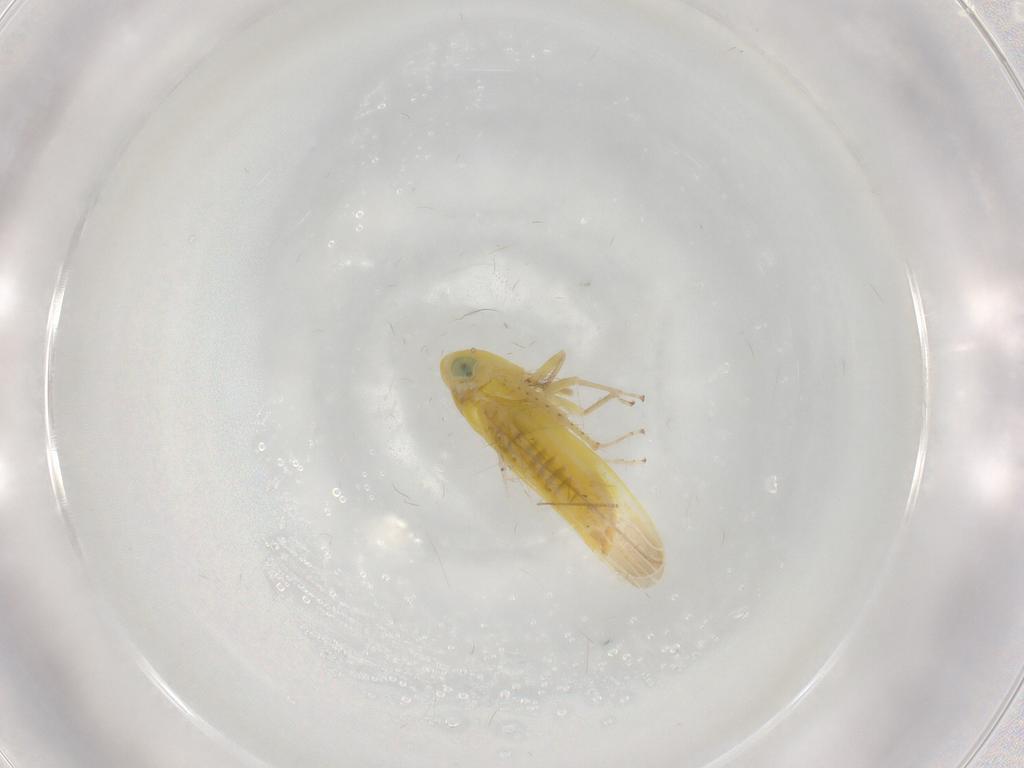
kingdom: Animalia
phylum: Arthropoda
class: Insecta
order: Hemiptera
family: Cicadellidae
